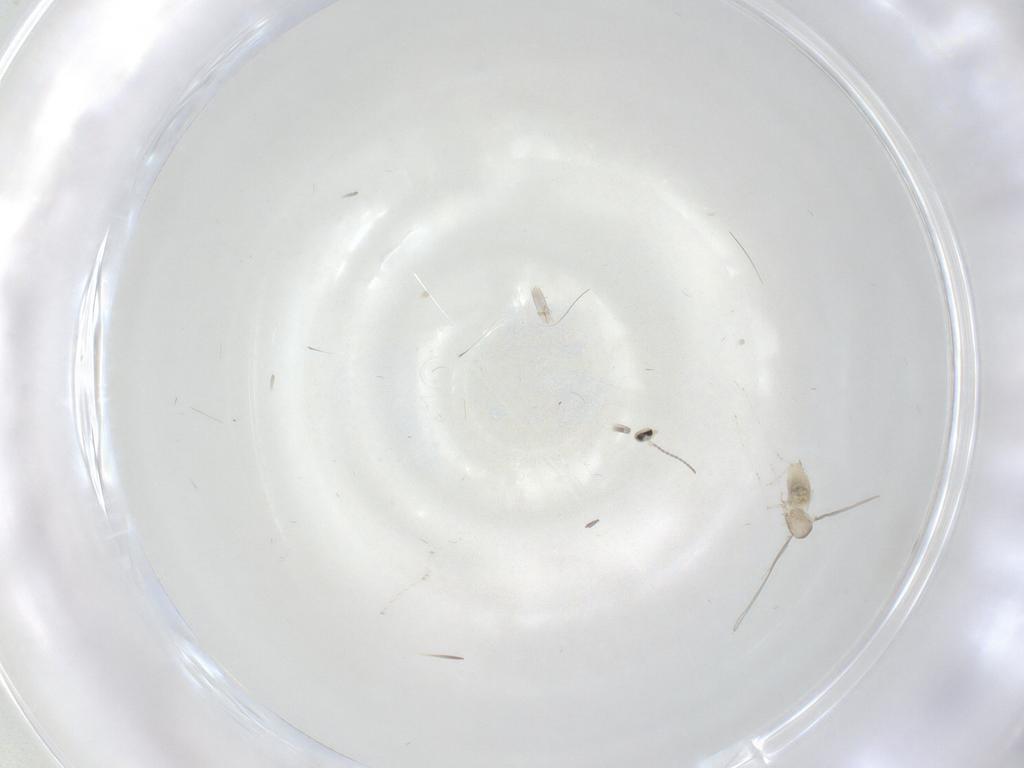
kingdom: Animalia
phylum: Arthropoda
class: Insecta
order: Diptera
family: Cecidomyiidae
